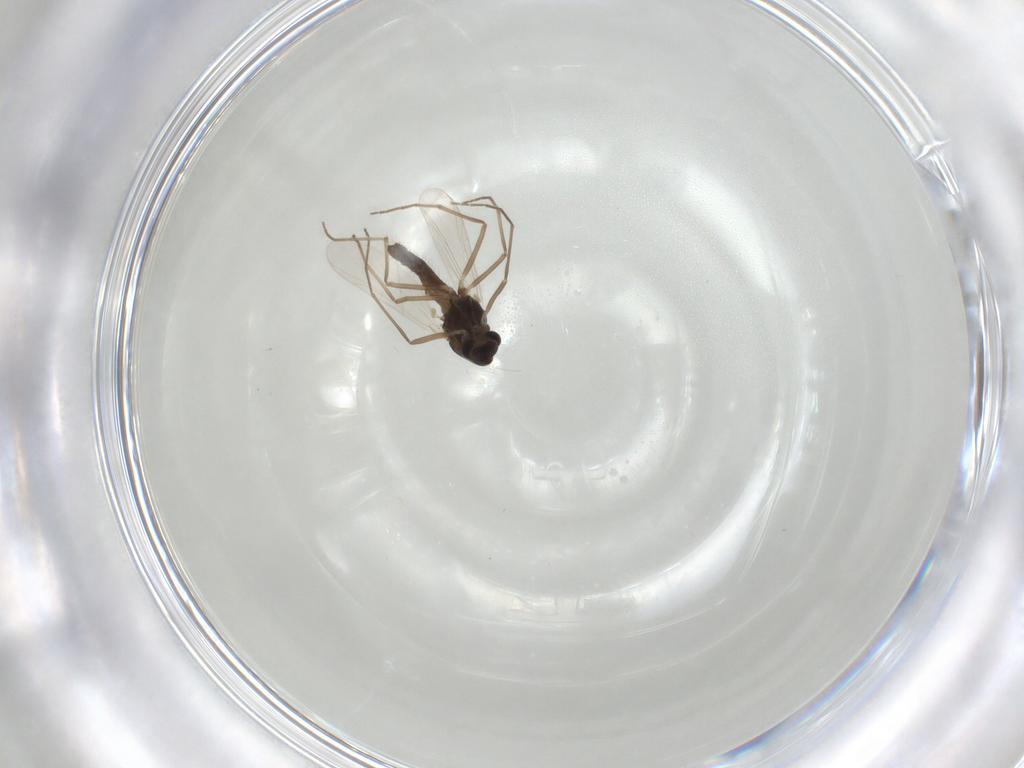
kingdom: Animalia
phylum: Arthropoda
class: Insecta
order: Diptera
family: Chironomidae
